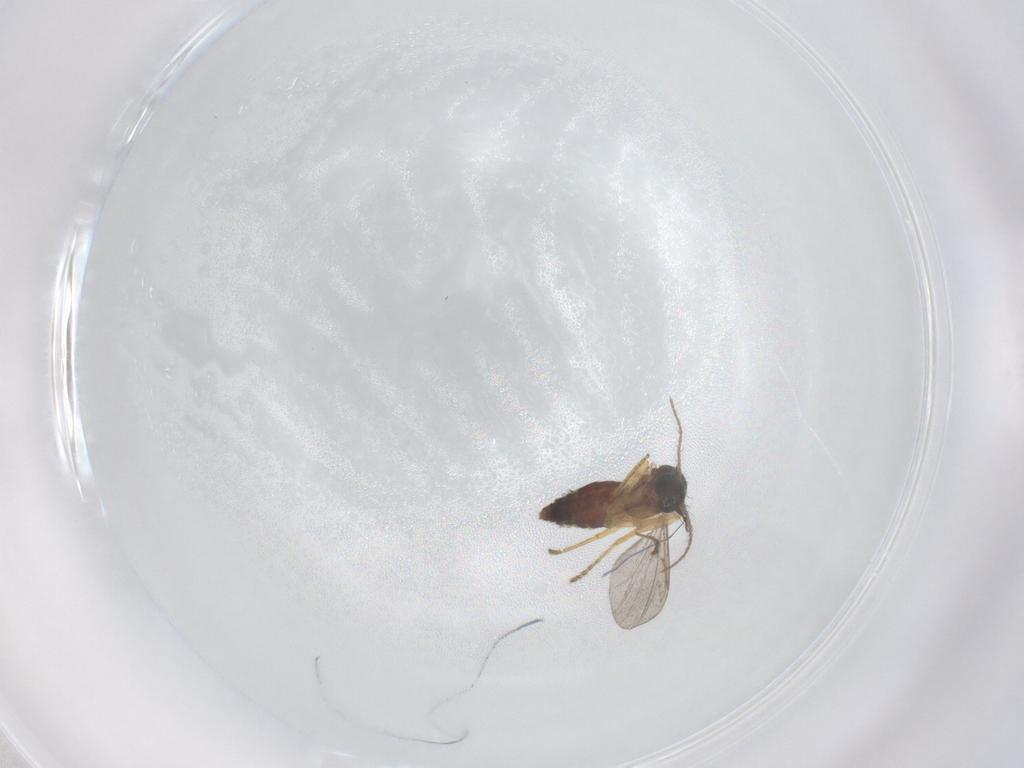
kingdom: Animalia
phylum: Arthropoda
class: Insecta
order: Diptera
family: Ceratopogonidae
